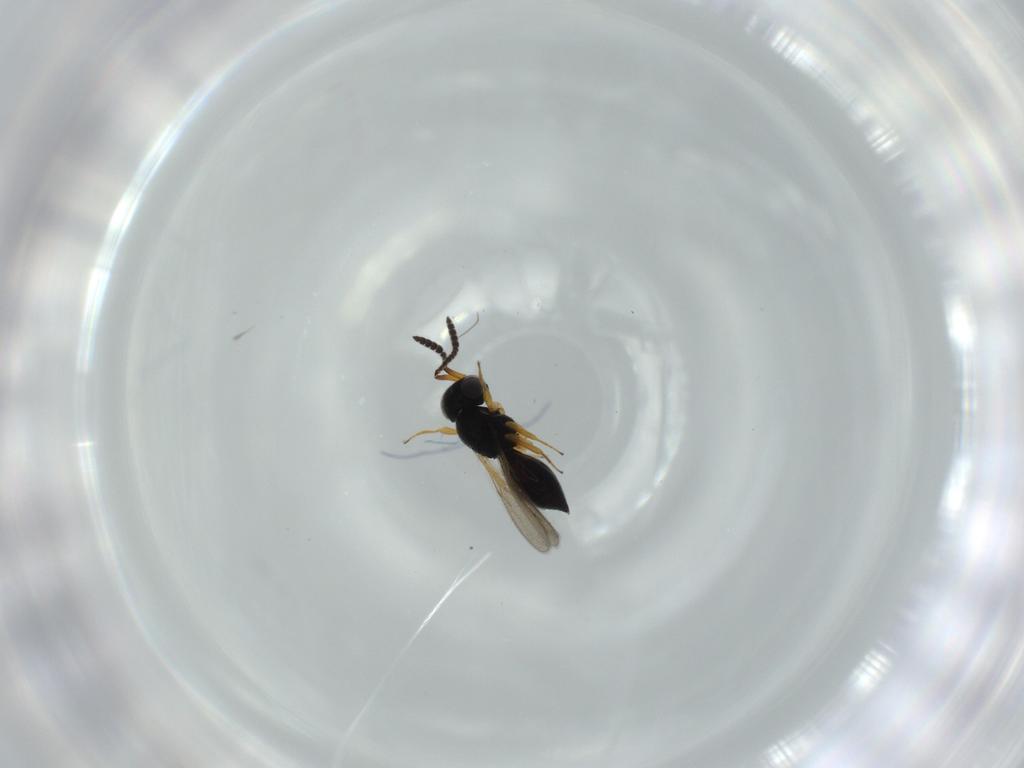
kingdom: Animalia
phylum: Arthropoda
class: Insecta
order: Hymenoptera
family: Scelionidae
